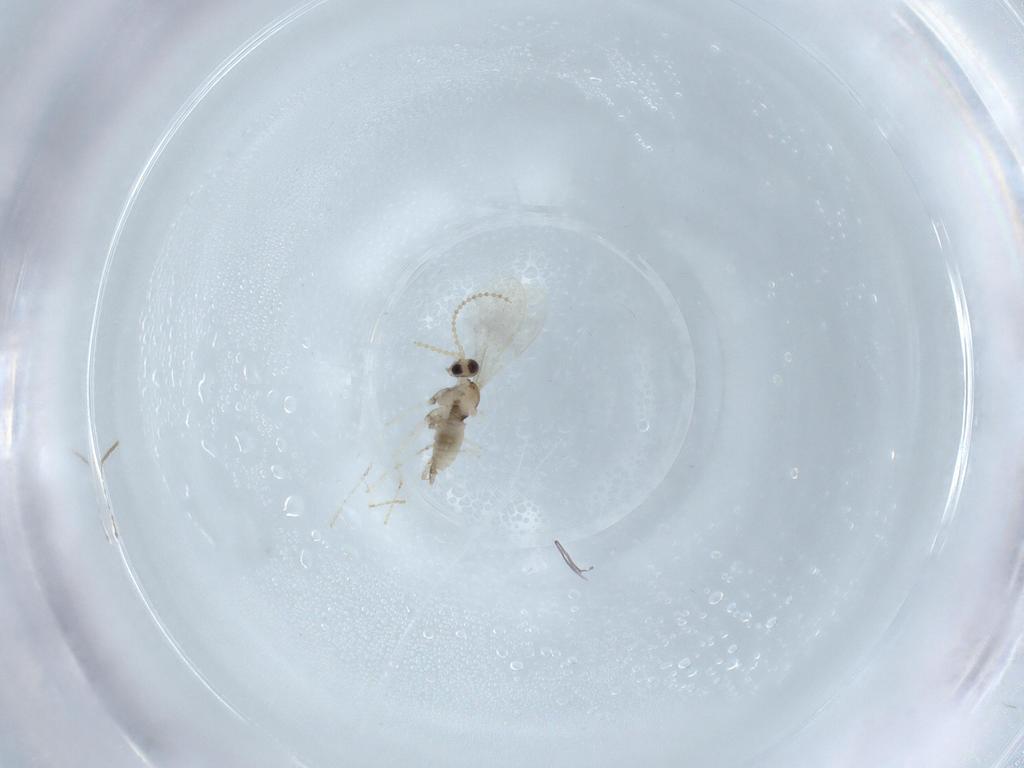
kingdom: Animalia
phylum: Arthropoda
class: Insecta
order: Diptera
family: Cecidomyiidae
